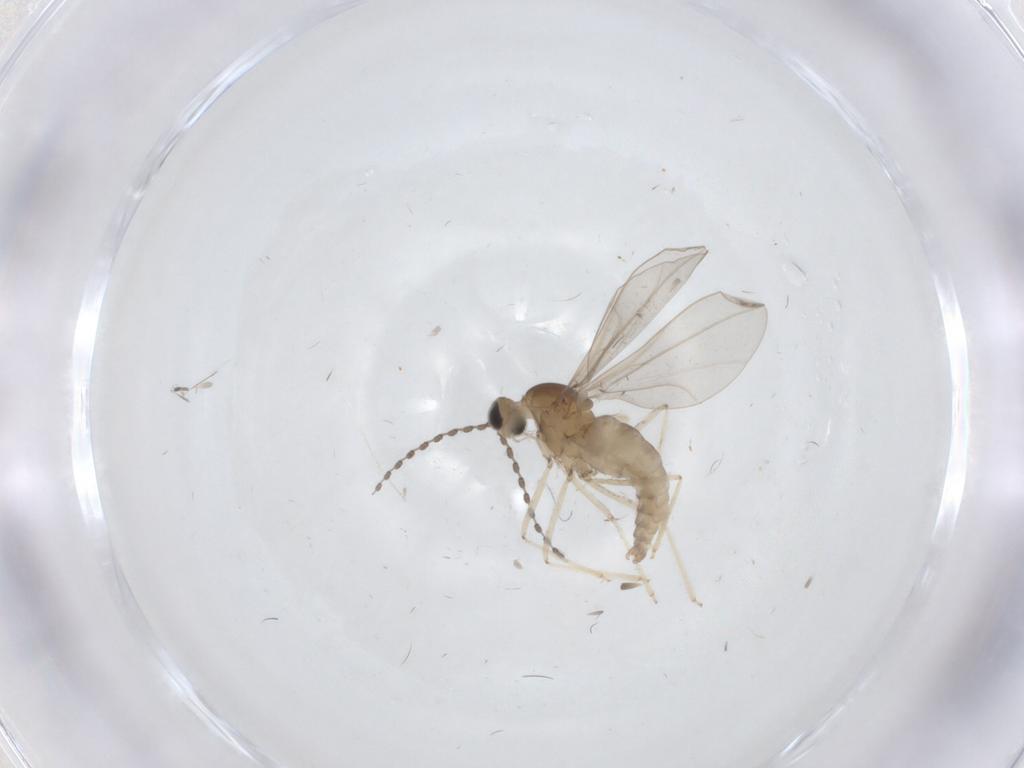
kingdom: Animalia
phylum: Arthropoda
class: Insecta
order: Diptera
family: Cecidomyiidae
